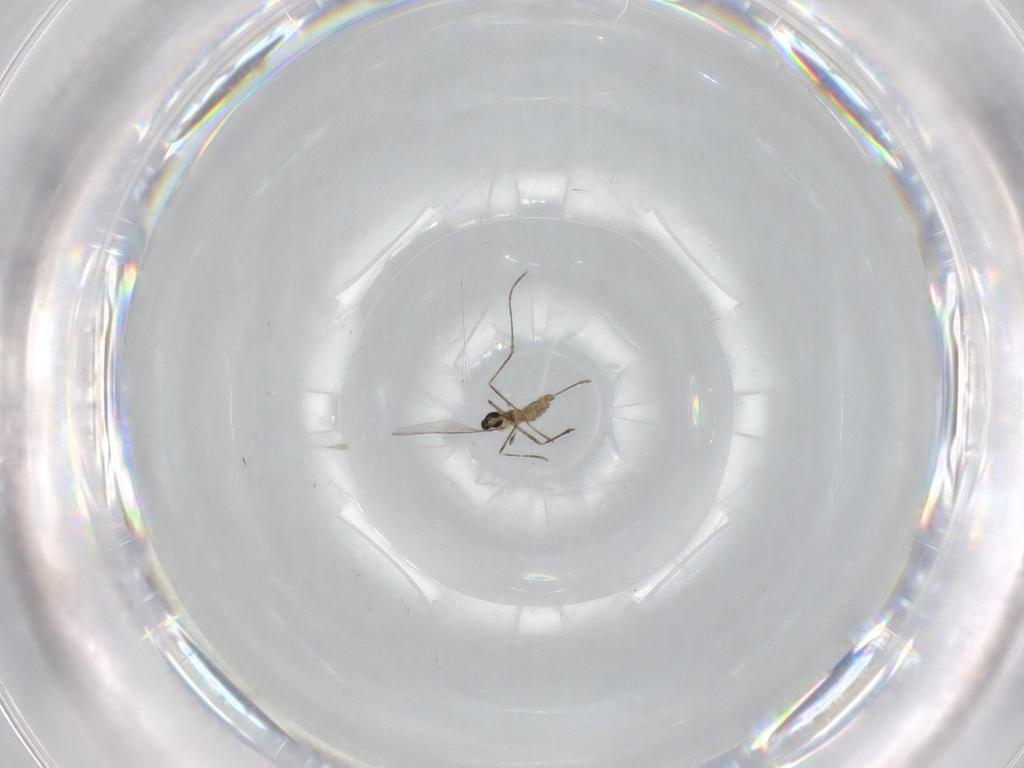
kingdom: Animalia
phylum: Arthropoda
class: Insecta
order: Diptera
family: Cecidomyiidae
